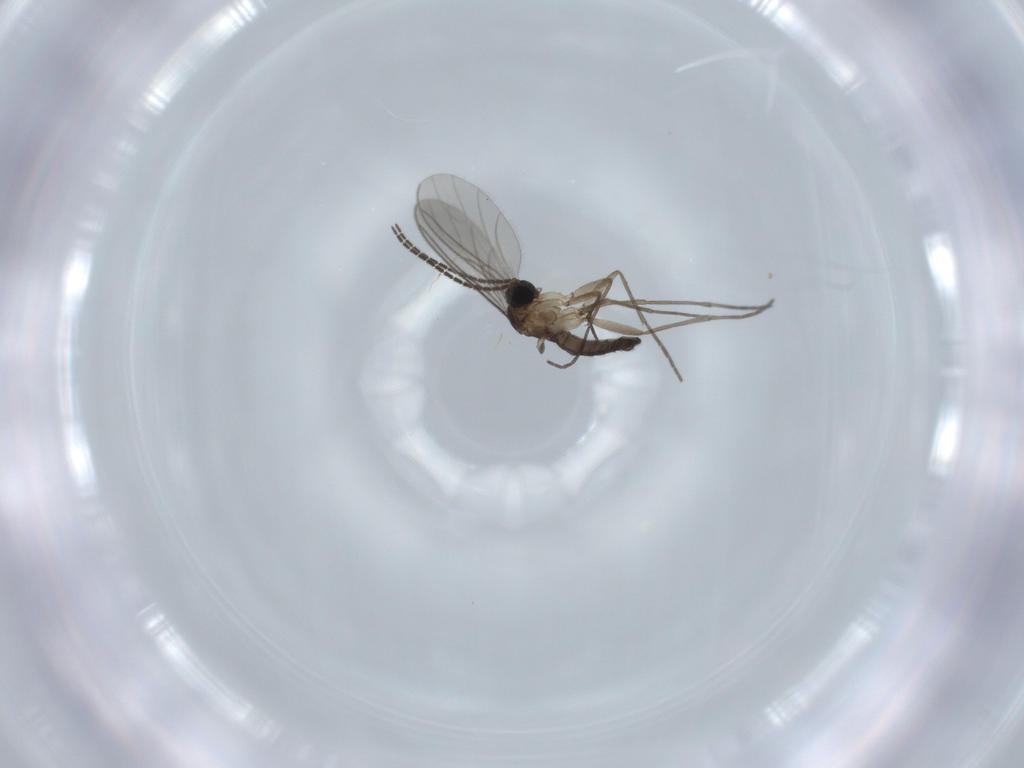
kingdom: Animalia
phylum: Arthropoda
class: Insecta
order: Diptera
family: Sciaridae
